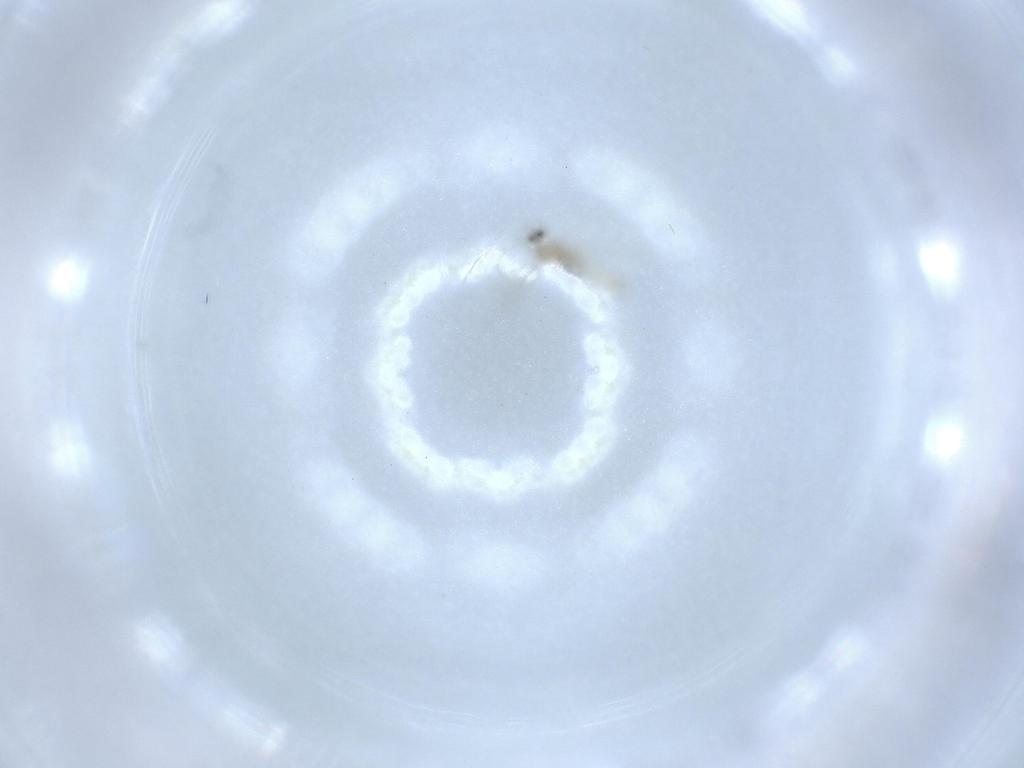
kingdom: Animalia
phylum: Arthropoda
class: Insecta
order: Diptera
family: Cecidomyiidae
